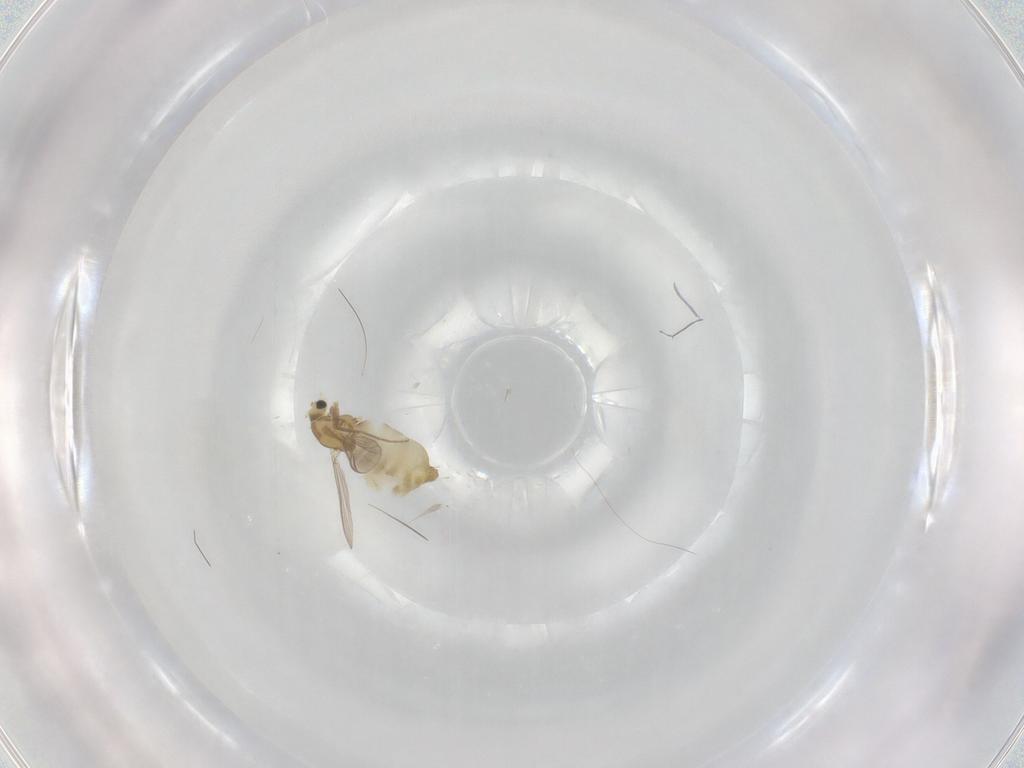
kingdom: Animalia
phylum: Arthropoda
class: Insecta
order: Diptera
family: Chironomidae
